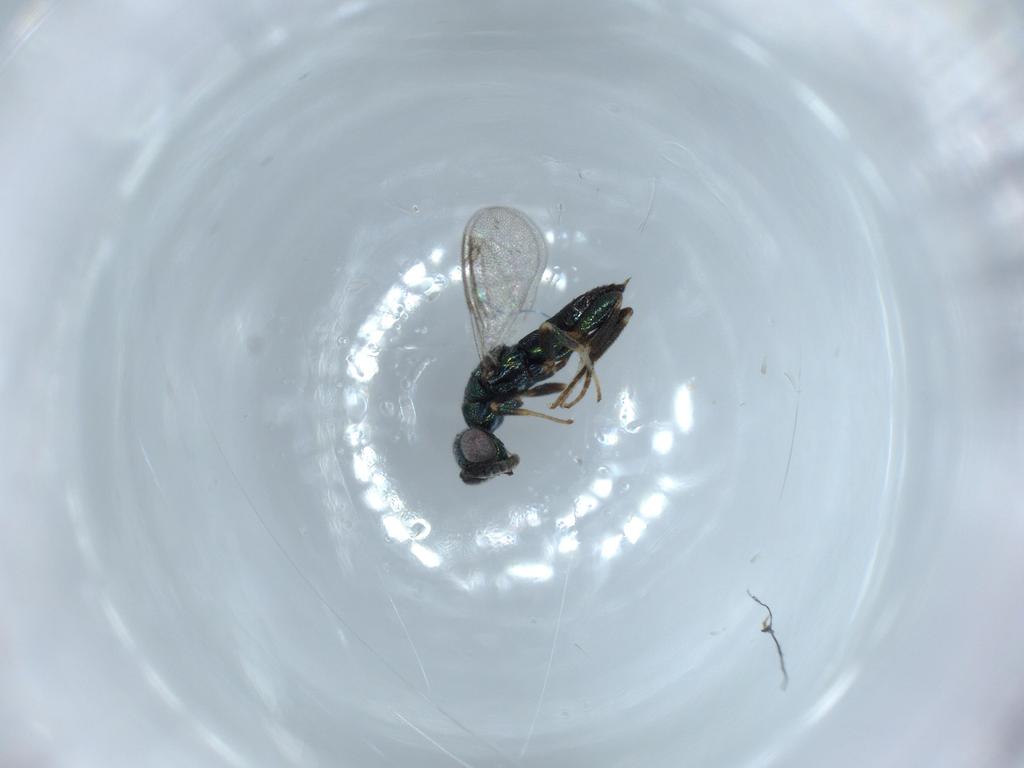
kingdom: Animalia
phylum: Arthropoda
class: Insecta
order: Hymenoptera
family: Cleonyminae
